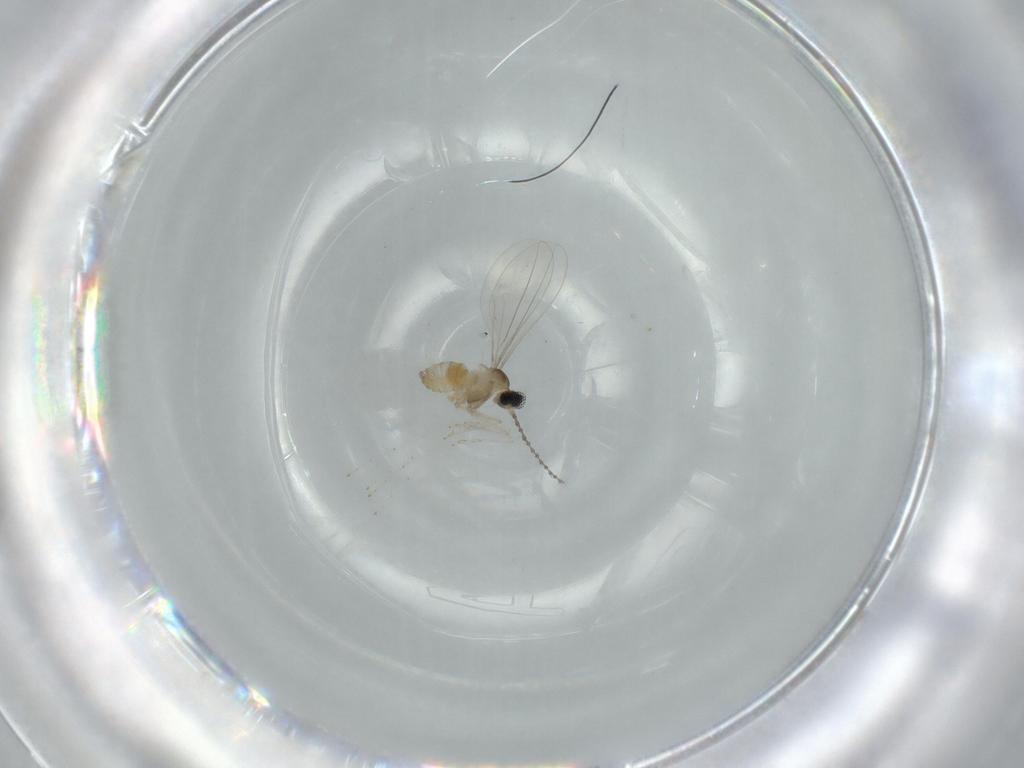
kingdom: Animalia
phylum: Arthropoda
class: Insecta
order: Diptera
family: Cecidomyiidae
